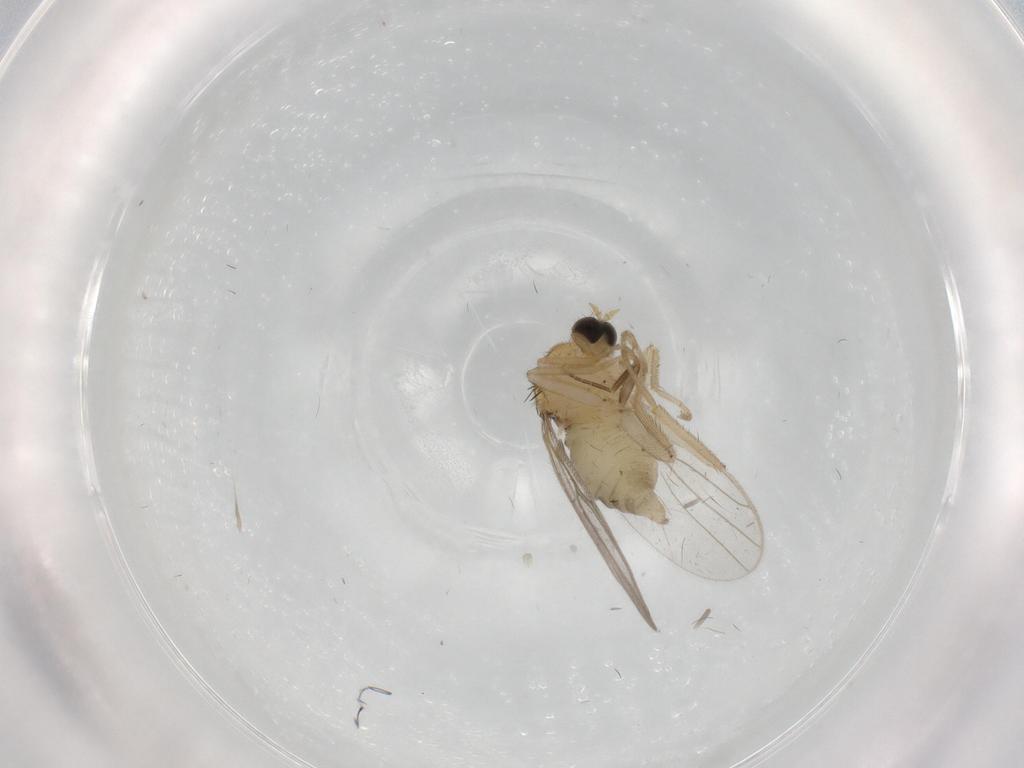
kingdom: Animalia
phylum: Arthropoda
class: Insecta
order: Diptera
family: Hybotidae
